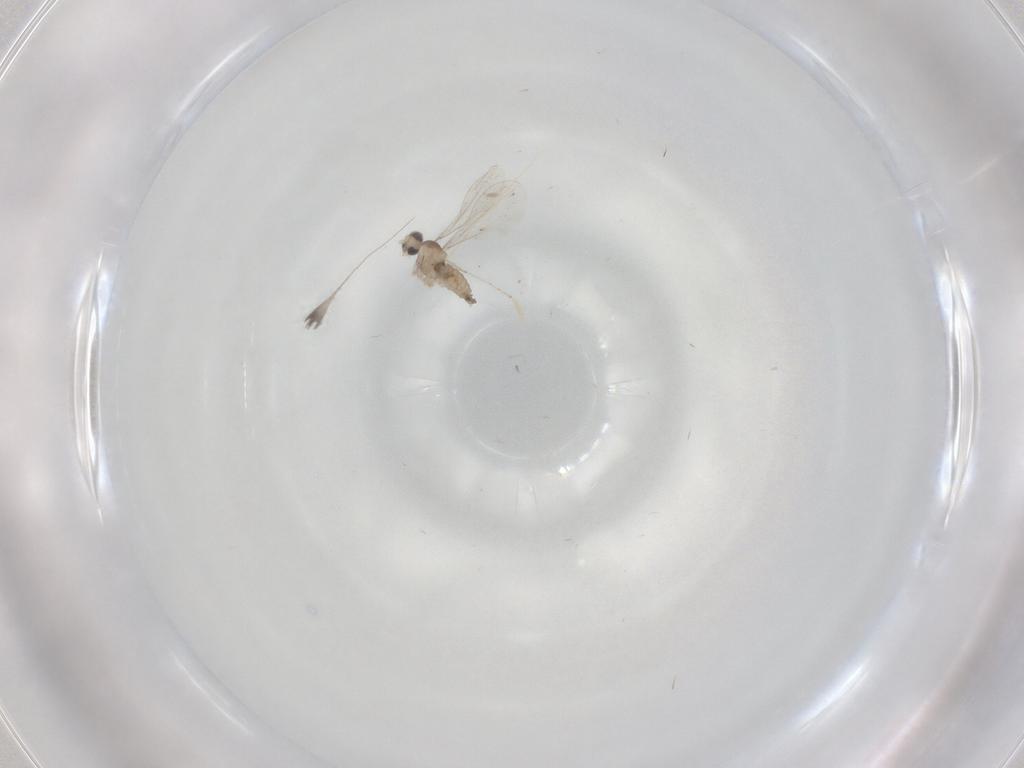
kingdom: Animalia
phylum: Arthropoda
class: Insecta
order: Diptera
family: Cecidomyiidae
